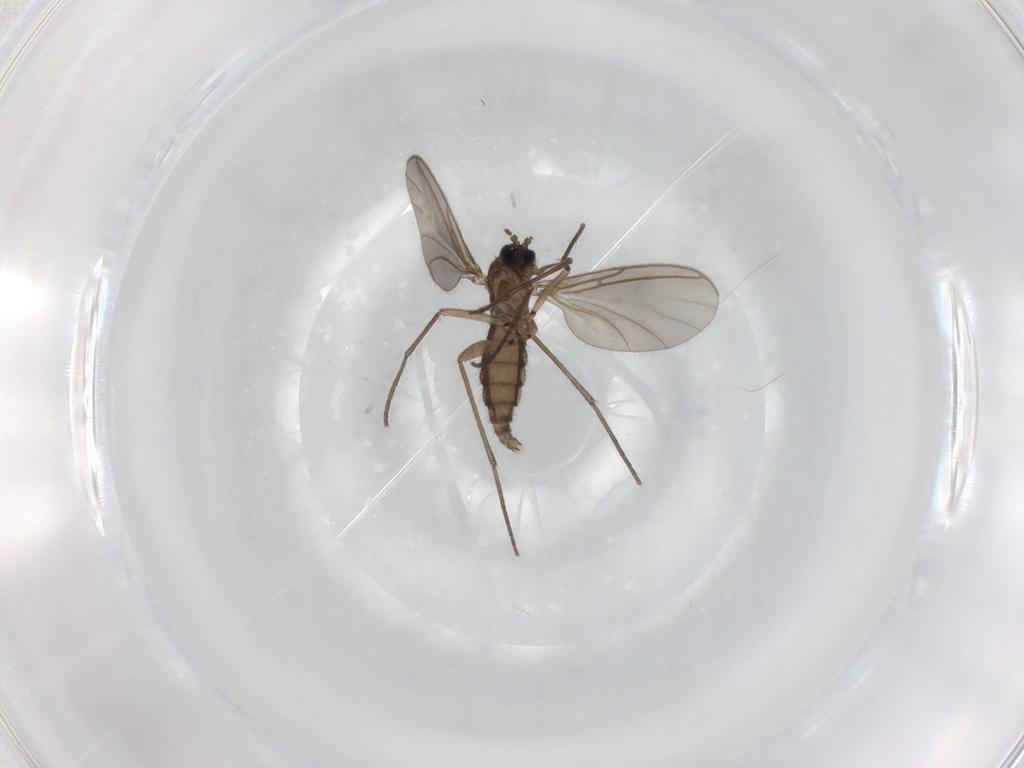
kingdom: Animalia
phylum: Arthropoda
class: Insecta
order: Diptera
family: Sciaridae
